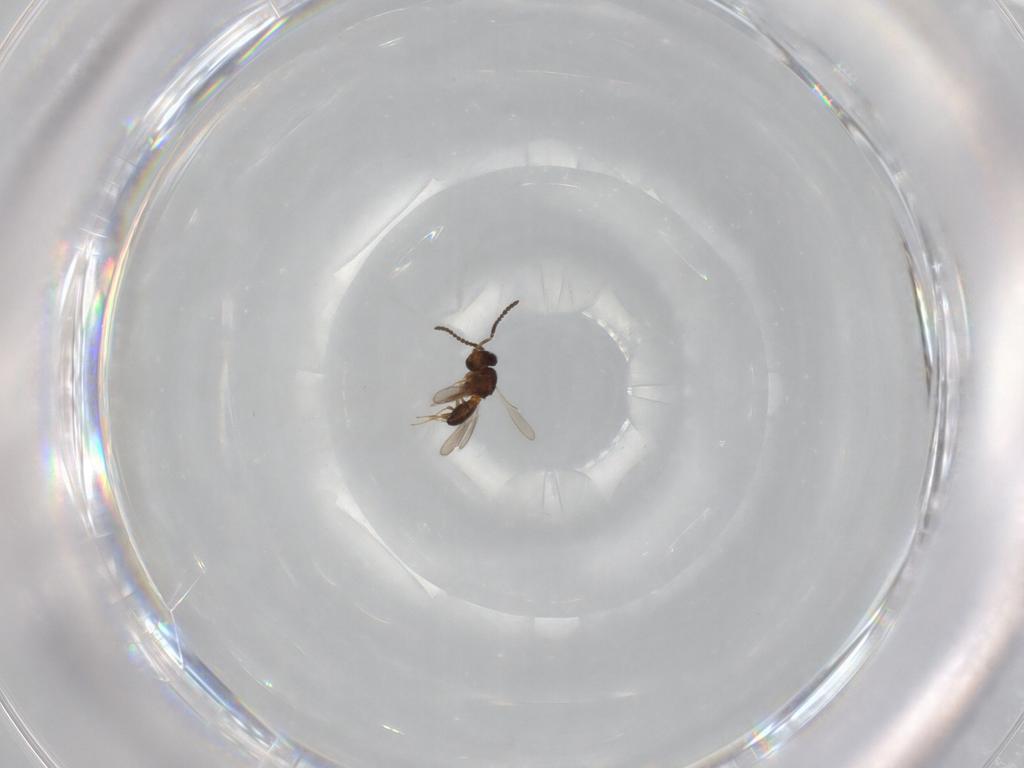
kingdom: Animalia
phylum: Arthropoda
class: Insecta
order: Hymenoptera
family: Scelionidae
